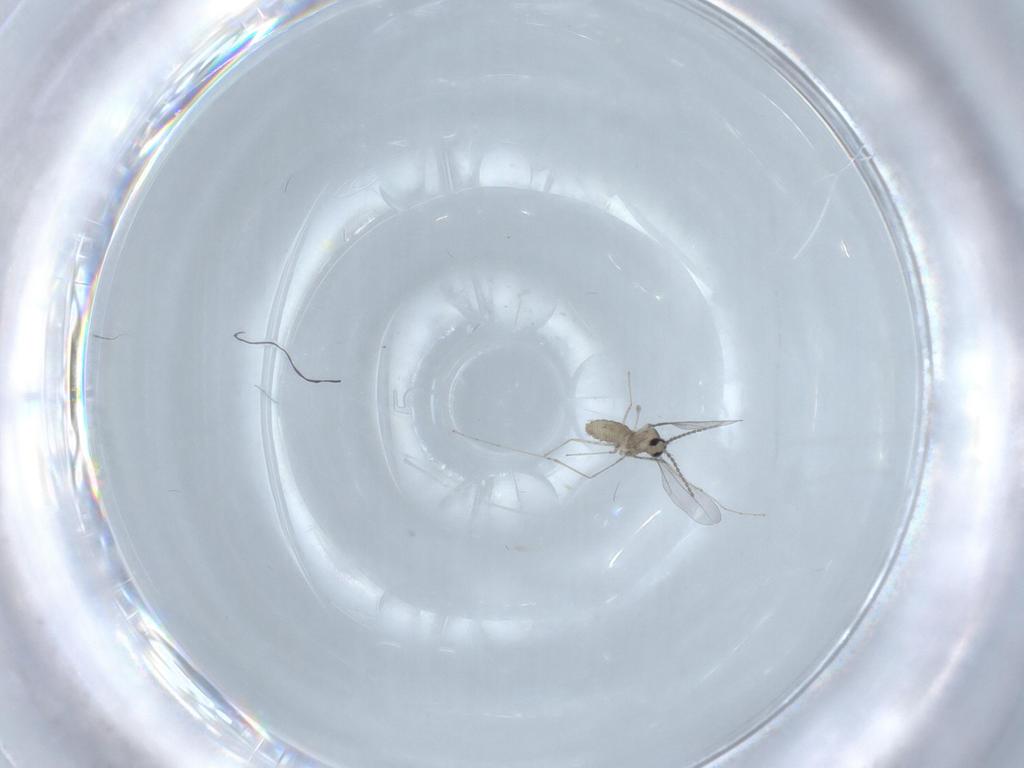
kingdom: Animalia
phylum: Arthropoda
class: Insecta
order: Diptera
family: Cecidomyiidae
